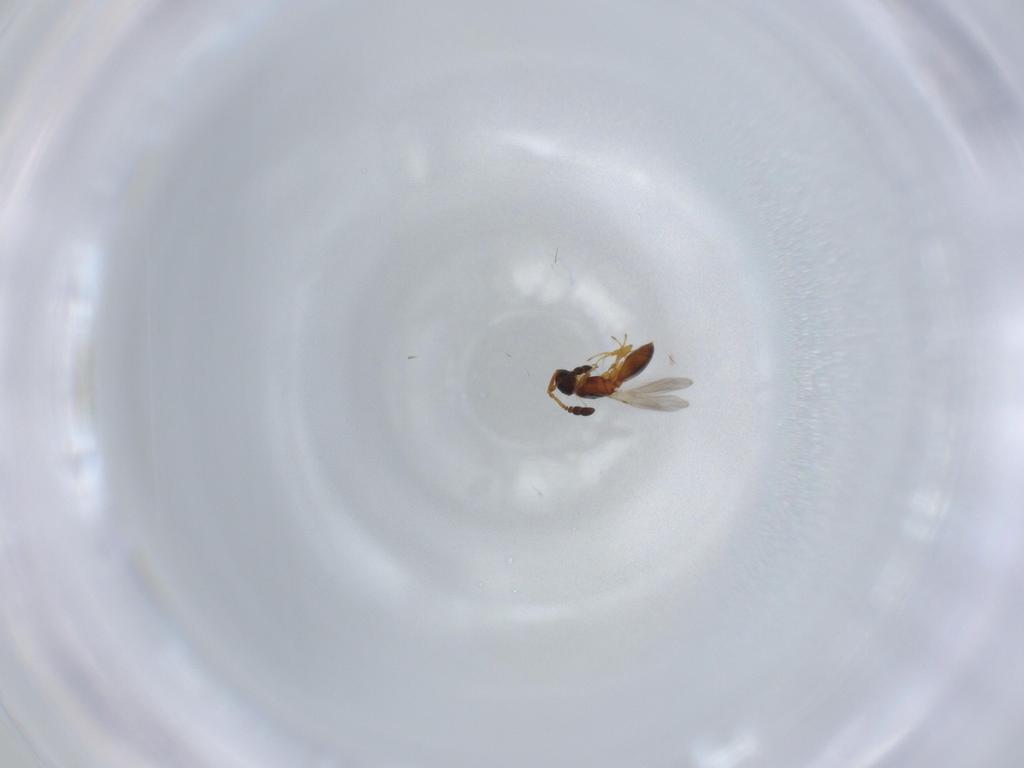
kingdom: Animalia
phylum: Arthropoda
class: Insecta
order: Hymenoptera
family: Diapriidae
